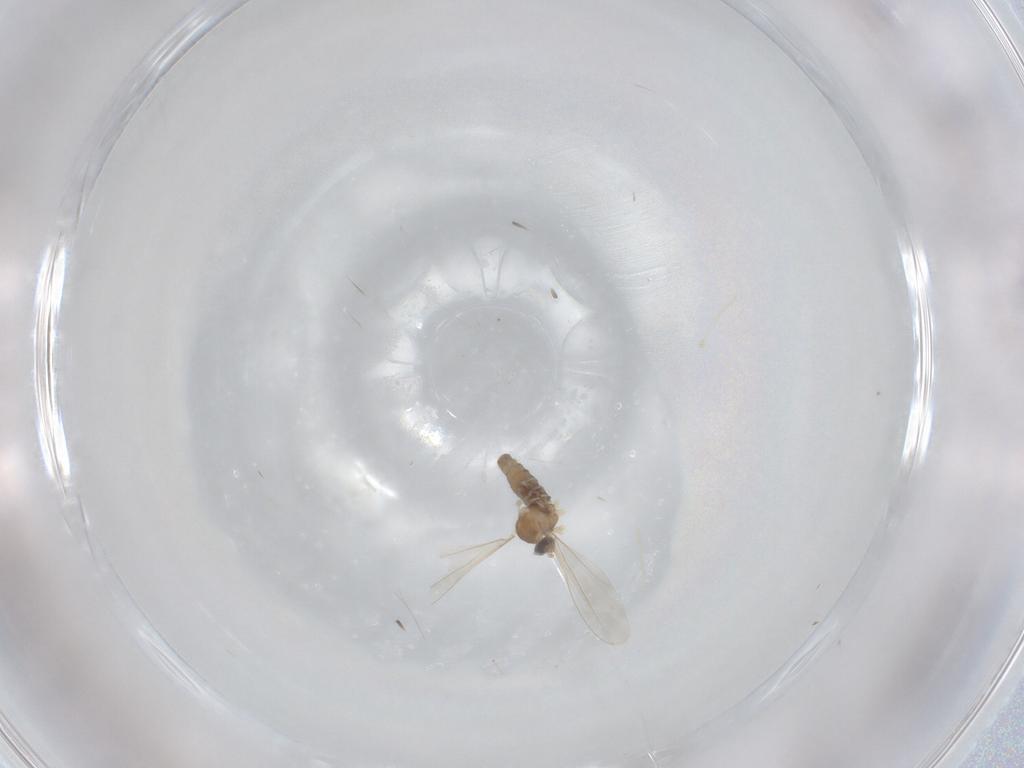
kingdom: Animalia
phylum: Arthropoda
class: Insecta
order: Diptera
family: Cecidomyiidae
